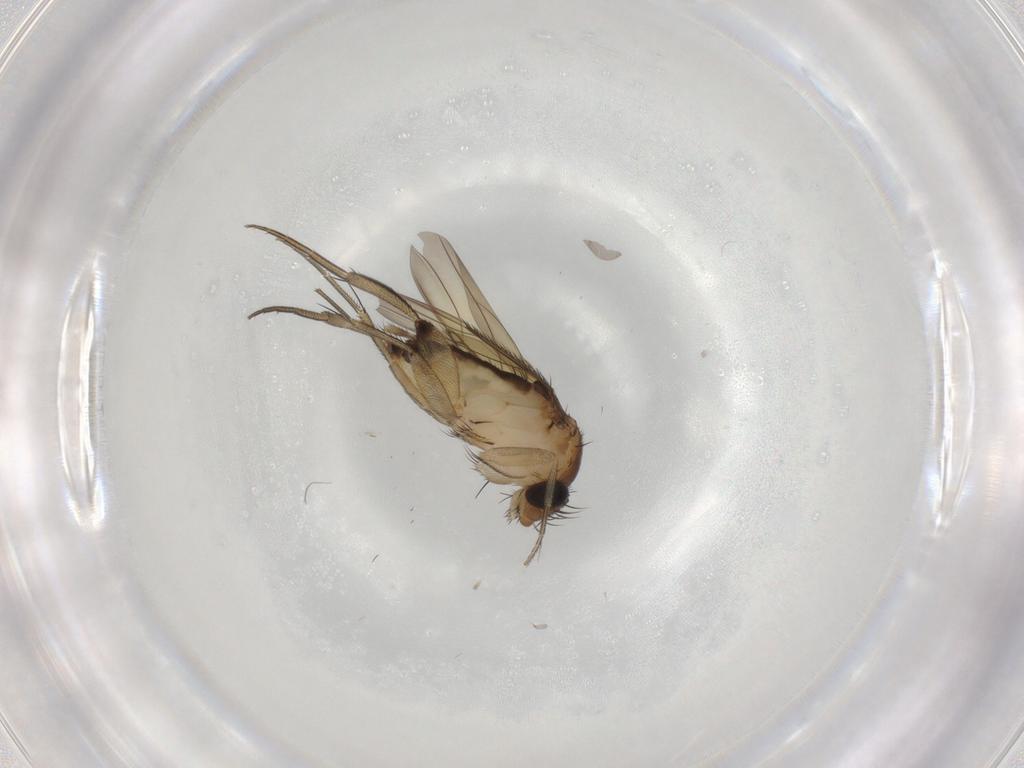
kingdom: Animalia
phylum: Arthropoda
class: Insecta
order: Diptera
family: Phoridae
